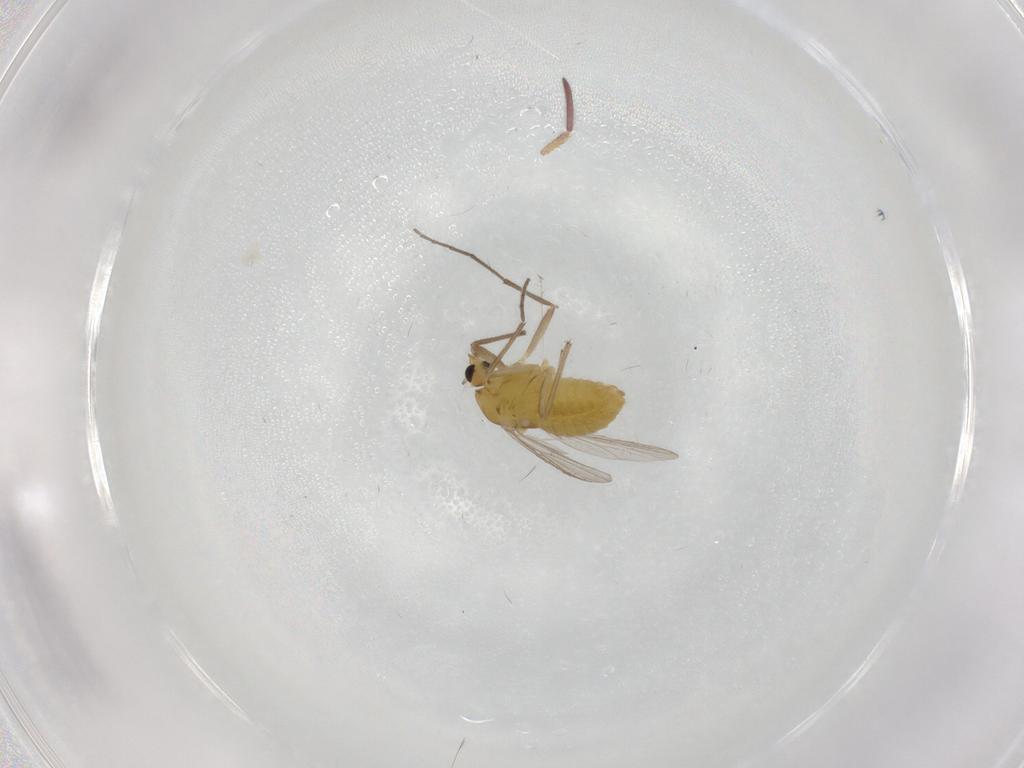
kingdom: Animalia
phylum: Arthropoda
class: Insecta
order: Diptera
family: Chironomidae
